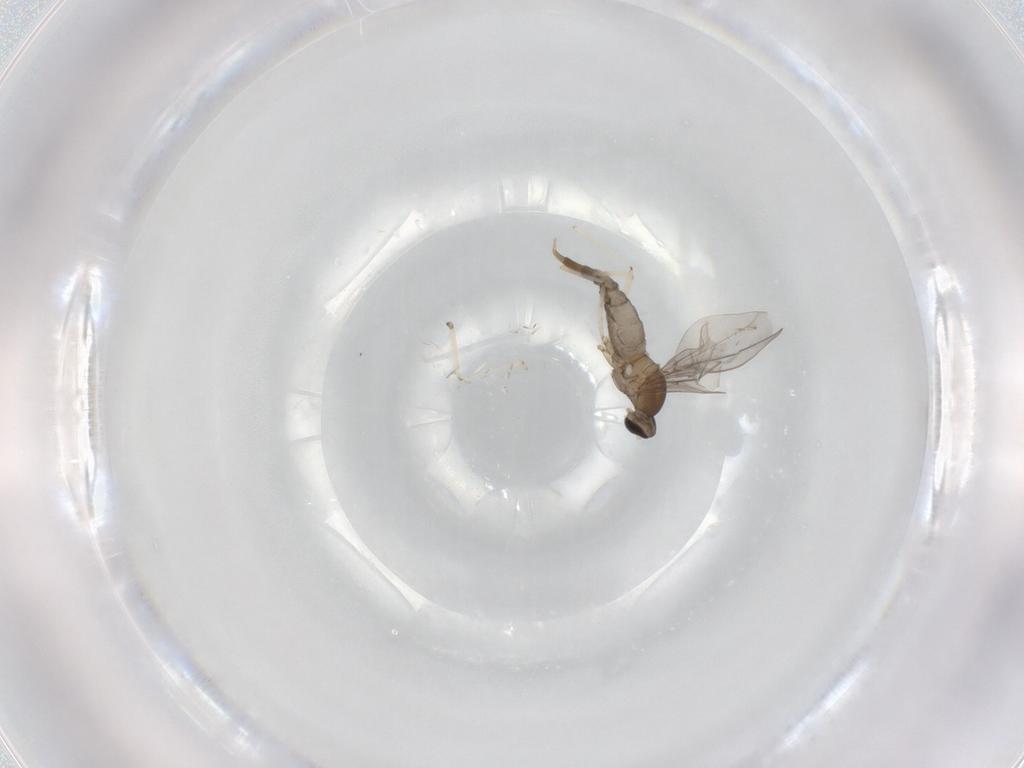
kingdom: Animalia
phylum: Arthropoda
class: Insecta
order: Diptera
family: Cecidomyiidae
